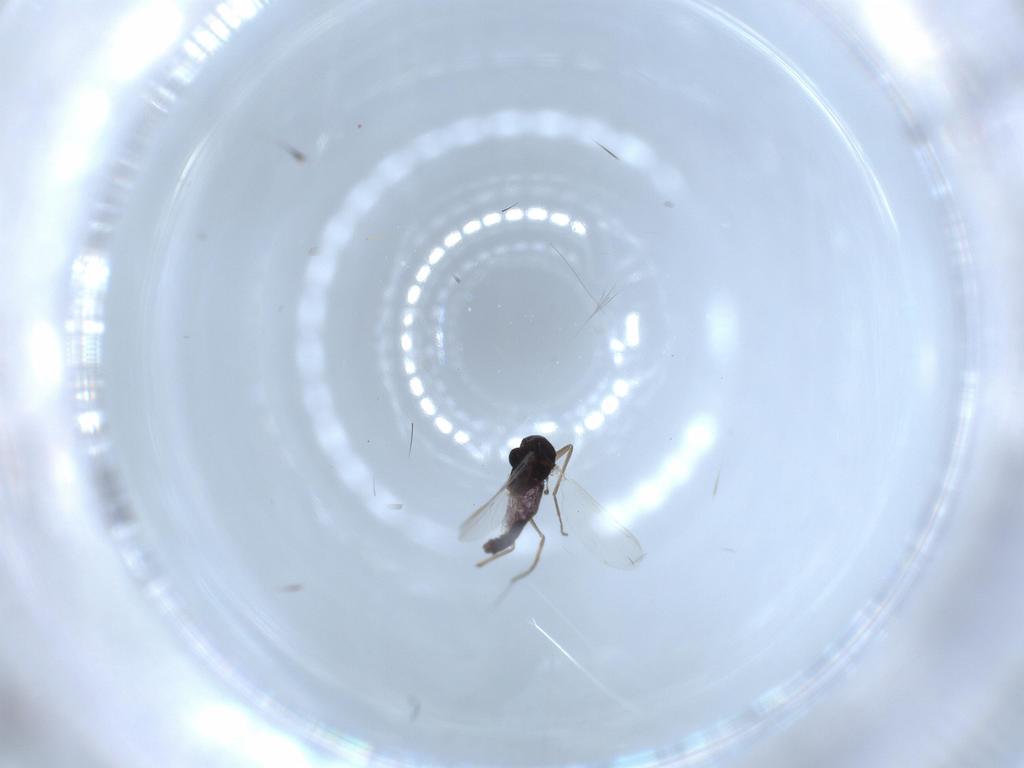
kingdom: Animalia
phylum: Arthropoda
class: Insecta
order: Diptera
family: Chironomidae
